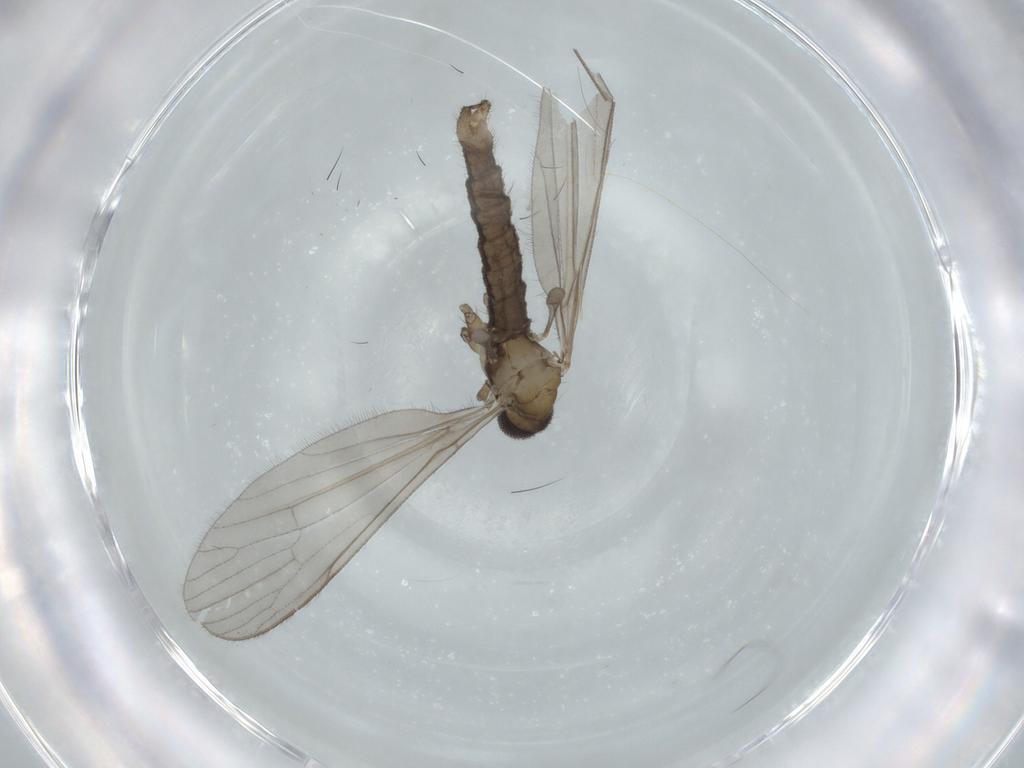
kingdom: Animalia
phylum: Arthropoda
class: Insecta
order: Diptera
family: Cecidomyiidae
